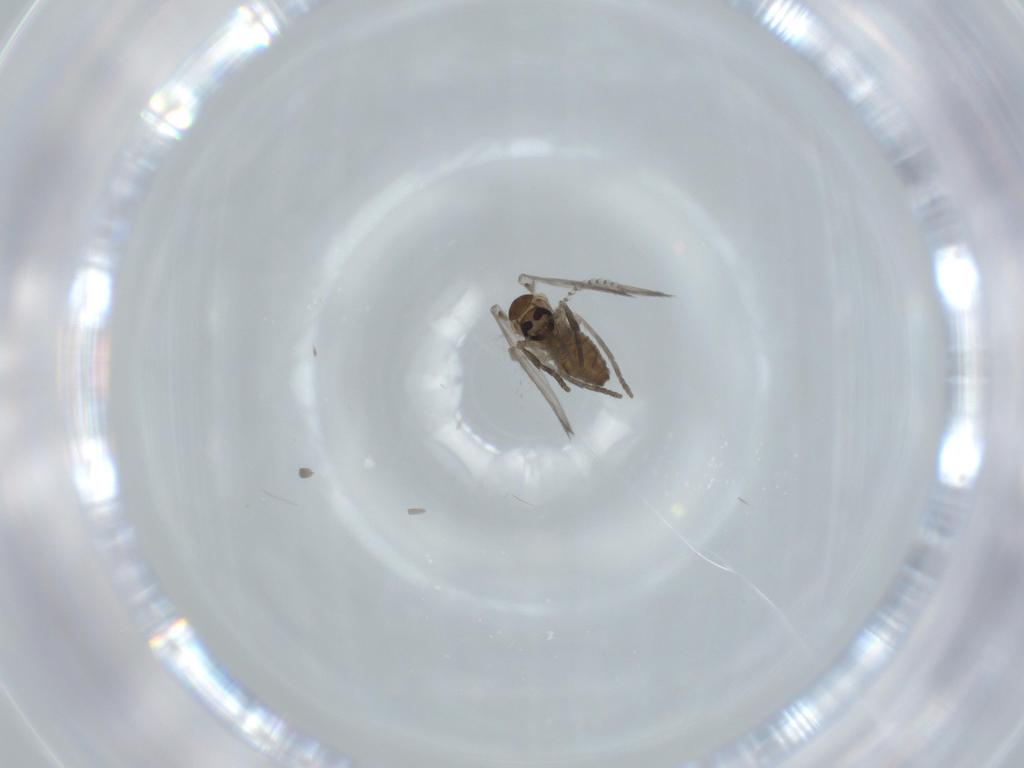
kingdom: Animalia
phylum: Arthropoda
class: Insecta
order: Diptera
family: Psychodidae
